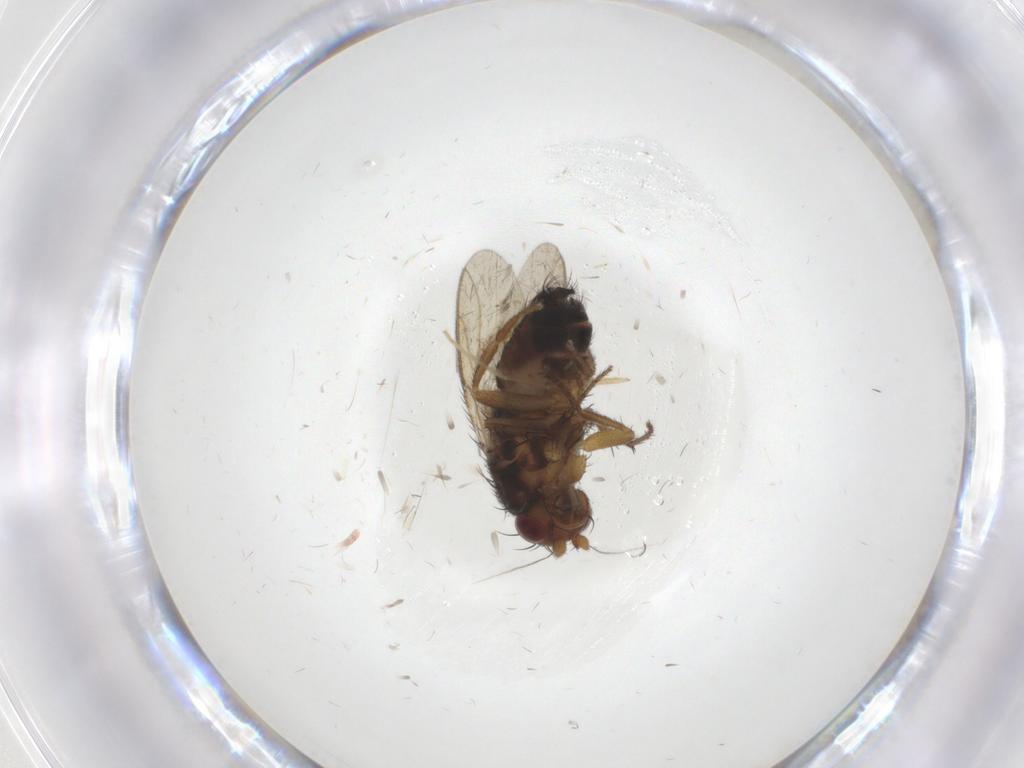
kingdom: Animalia
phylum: Arthropoda
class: Insecta
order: Diptera
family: Sphaeroceridae
